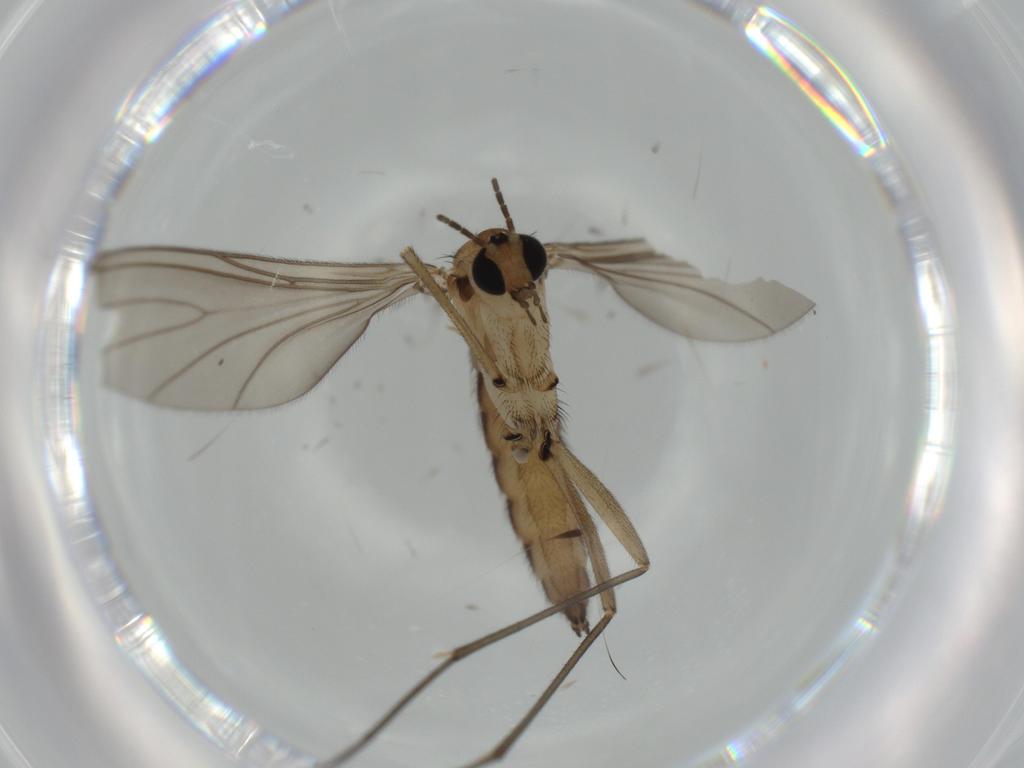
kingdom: Animalia
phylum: Arthropoda
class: Insecta
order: Diptera
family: Sciaridae
